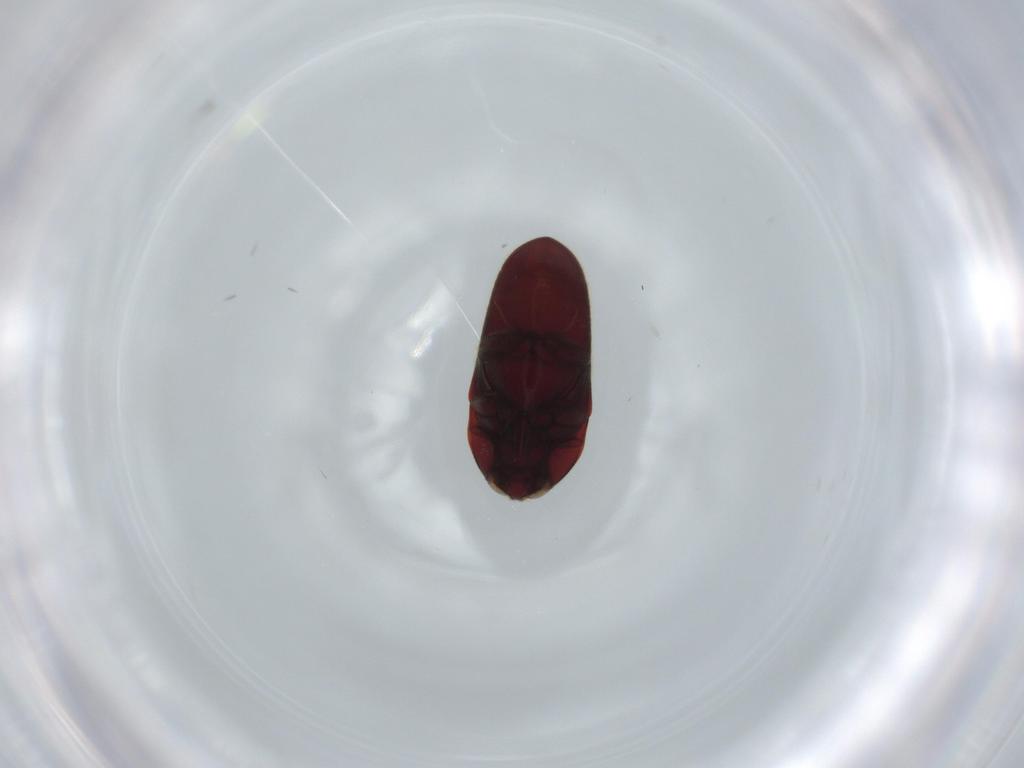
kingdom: Animalia
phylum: Arthropoda
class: Insecta
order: Coleoptera
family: Throscidae
